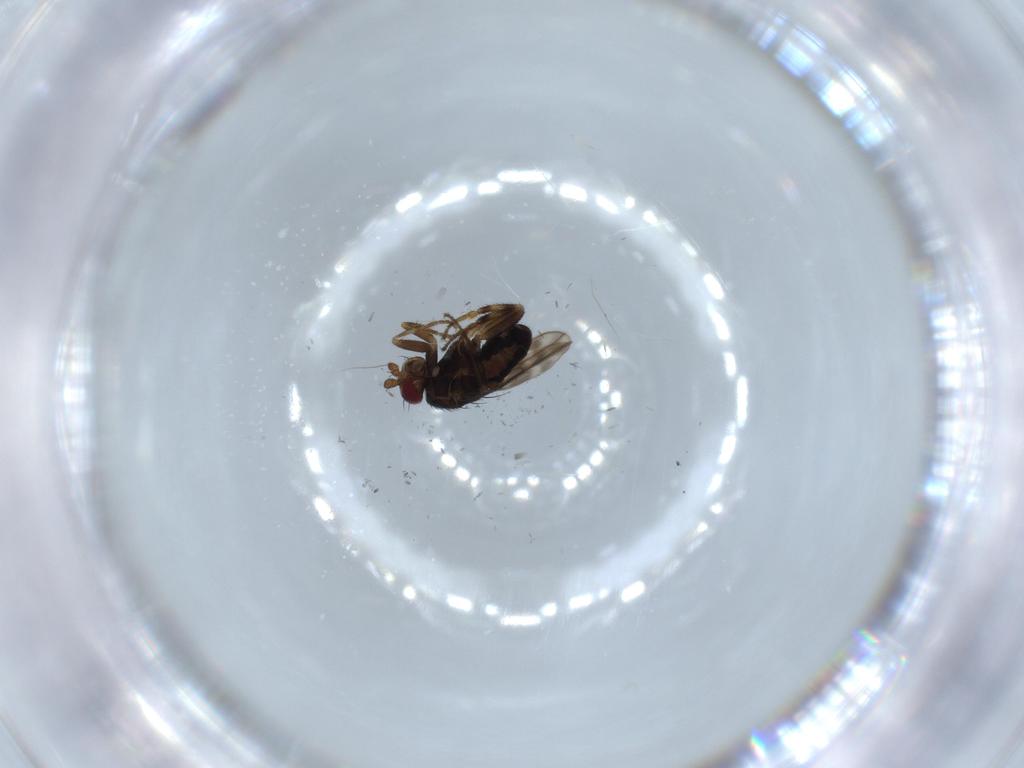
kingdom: Animalia
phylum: Arthropoda
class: Insecta
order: Diptera
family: Sphaeroceridae
